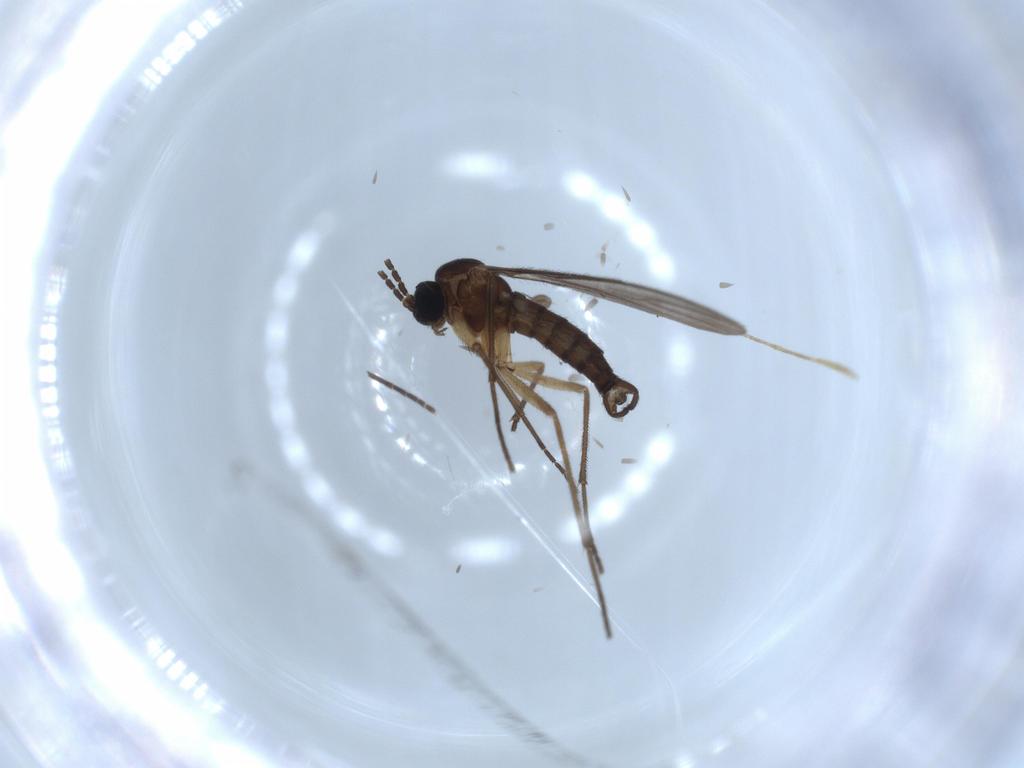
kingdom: Animalia
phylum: Arthropoda
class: Insecta
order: Diptera
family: Sciaridae
